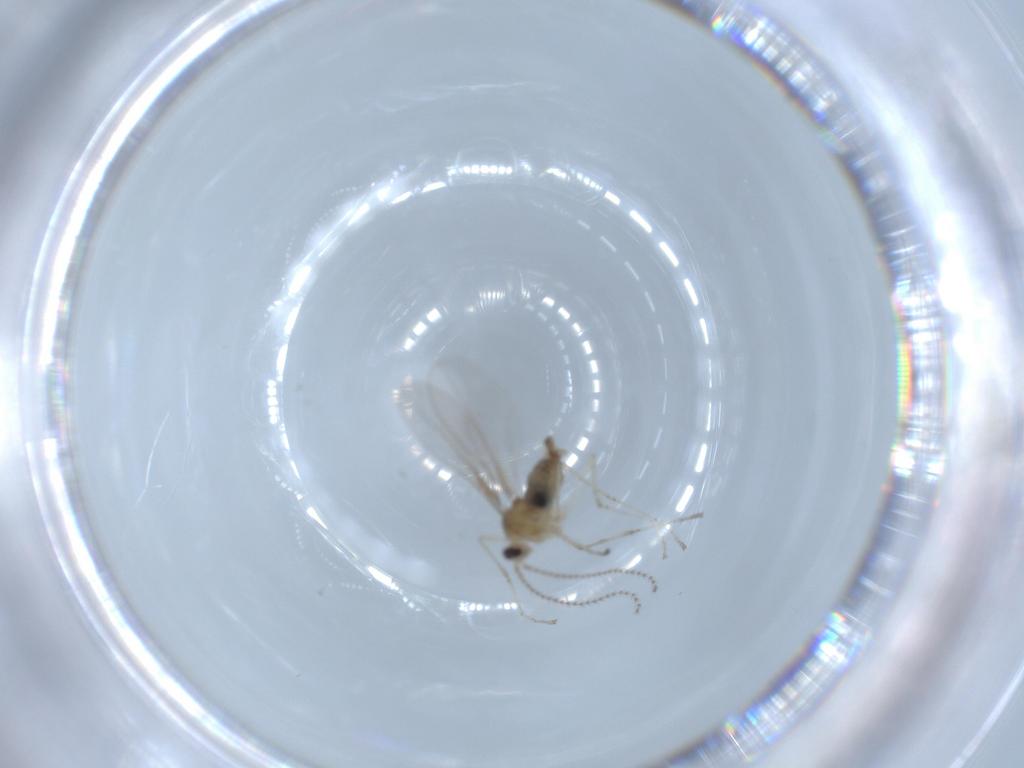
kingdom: Animalia
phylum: Arthropoda
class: Insecta
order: Diptera
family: Cecidomyiidae
